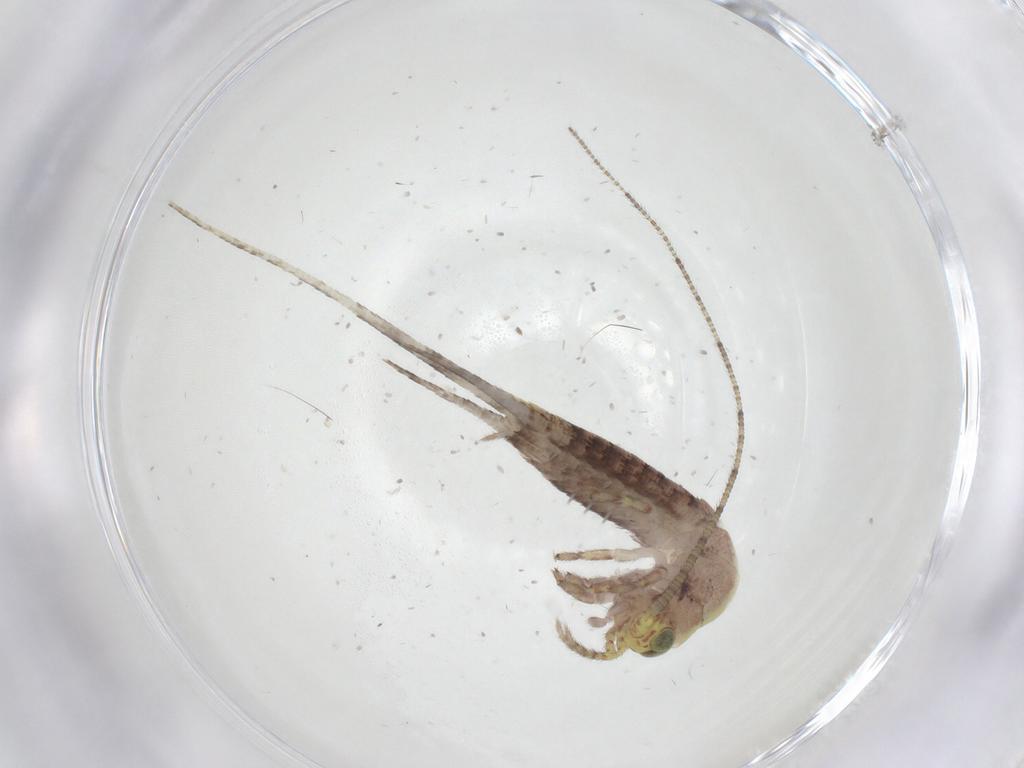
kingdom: Animalia
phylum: Arthropoda
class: Insecta
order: Archaeognatha
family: Machilidae
